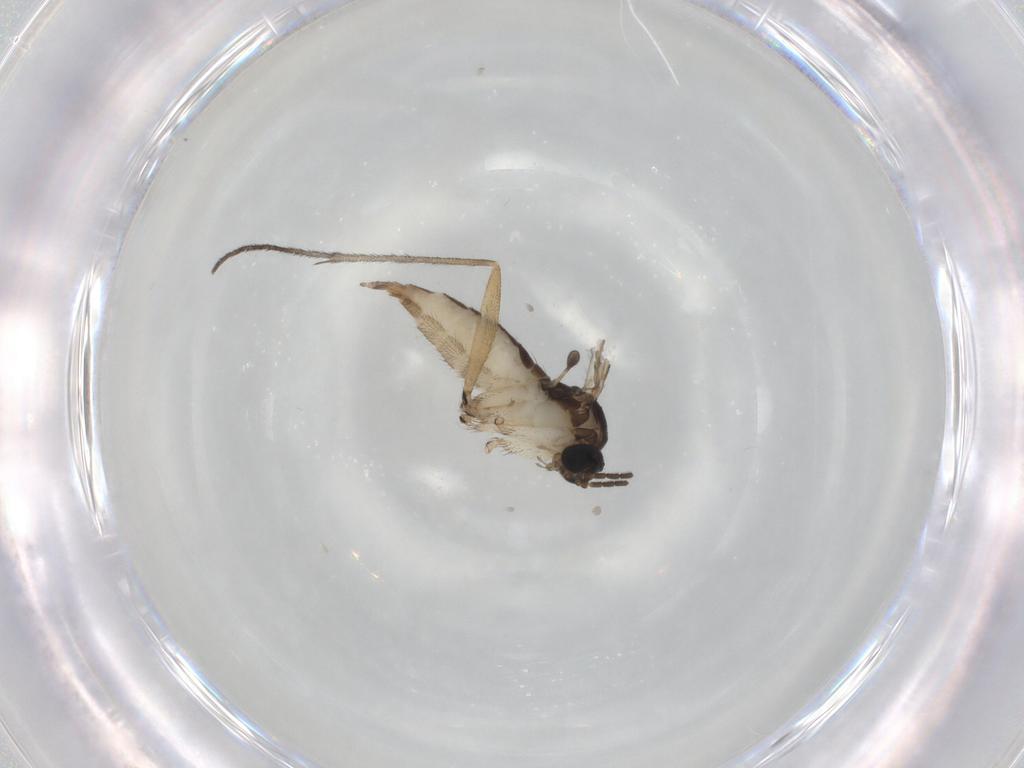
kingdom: Animalia
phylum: Arthropoda
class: Insecta
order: Diptera
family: Sciaridae
